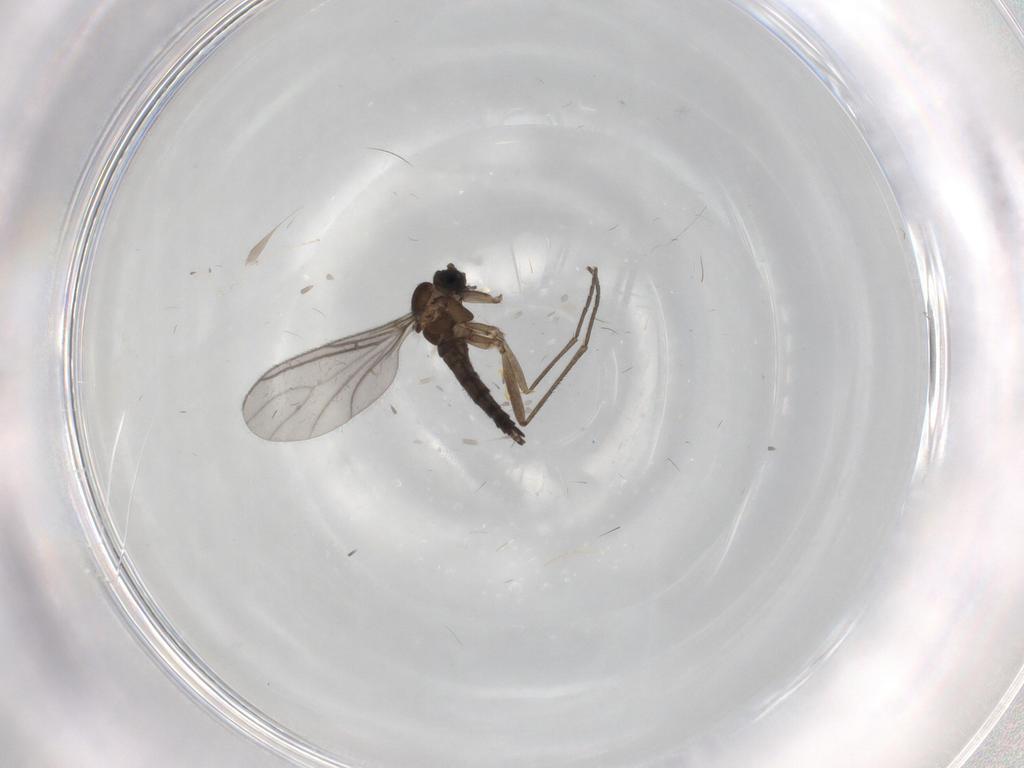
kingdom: Animalia
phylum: Arthropoda
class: Insecta
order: Diptera
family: Sciaridae
